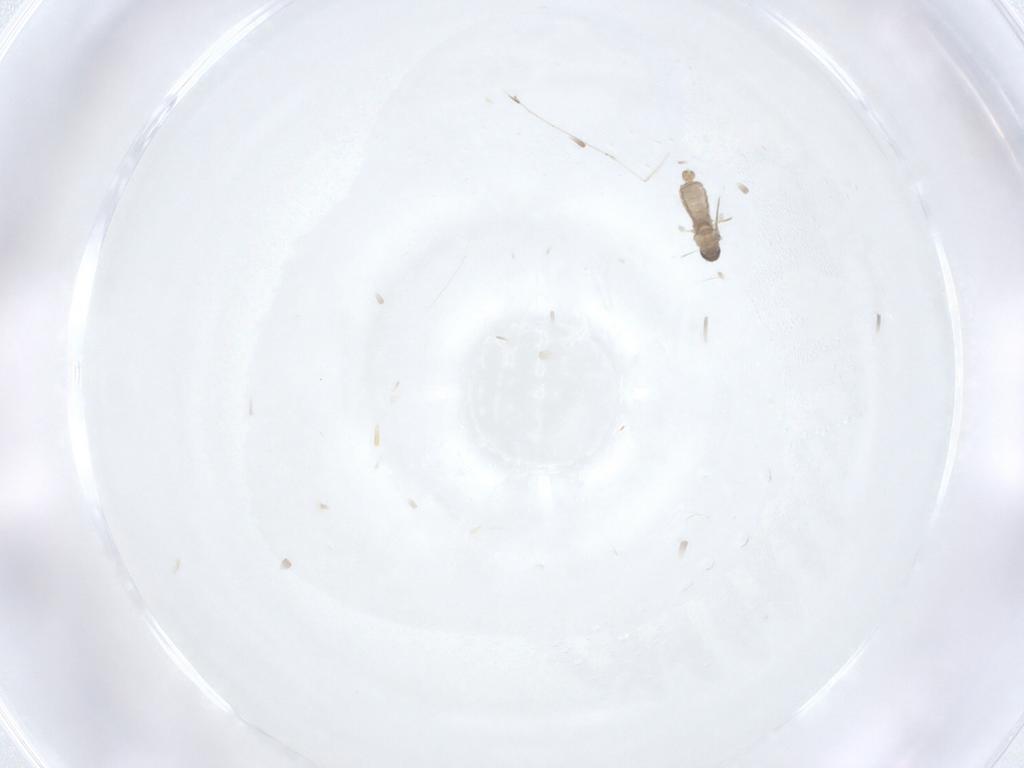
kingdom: Animalia
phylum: Arthropoda
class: Insecta
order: Diptera
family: Cecidomyiidae
